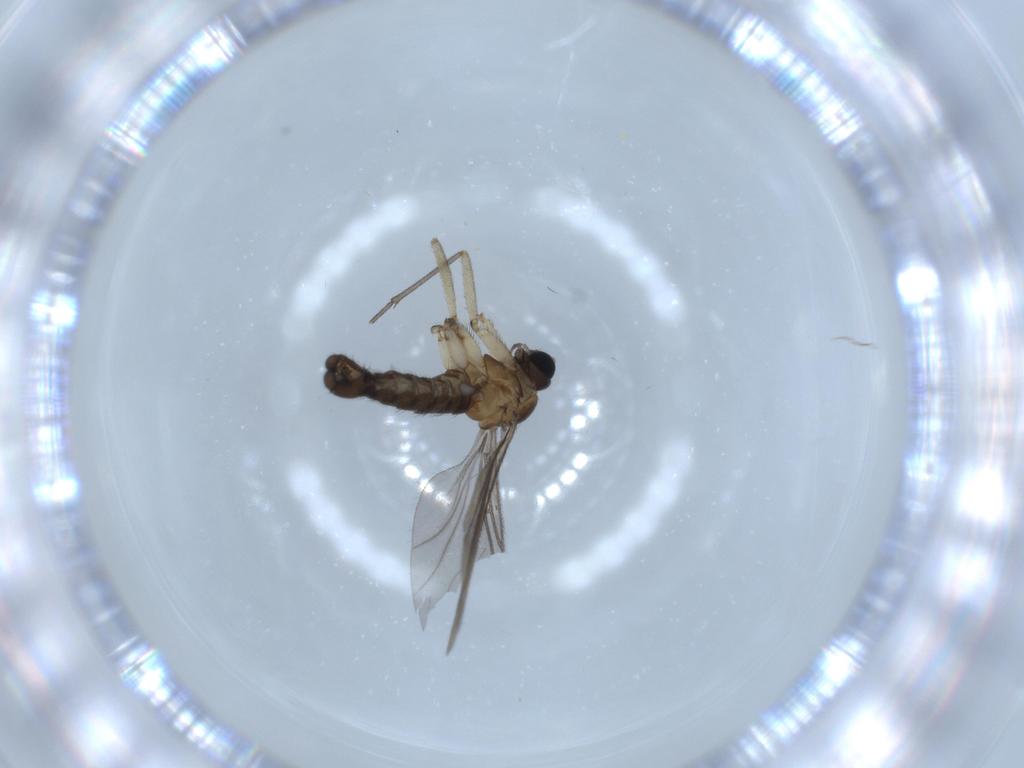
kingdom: Animalia
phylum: Arthropoda
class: Insecta
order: Diptera
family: Sciaridae
